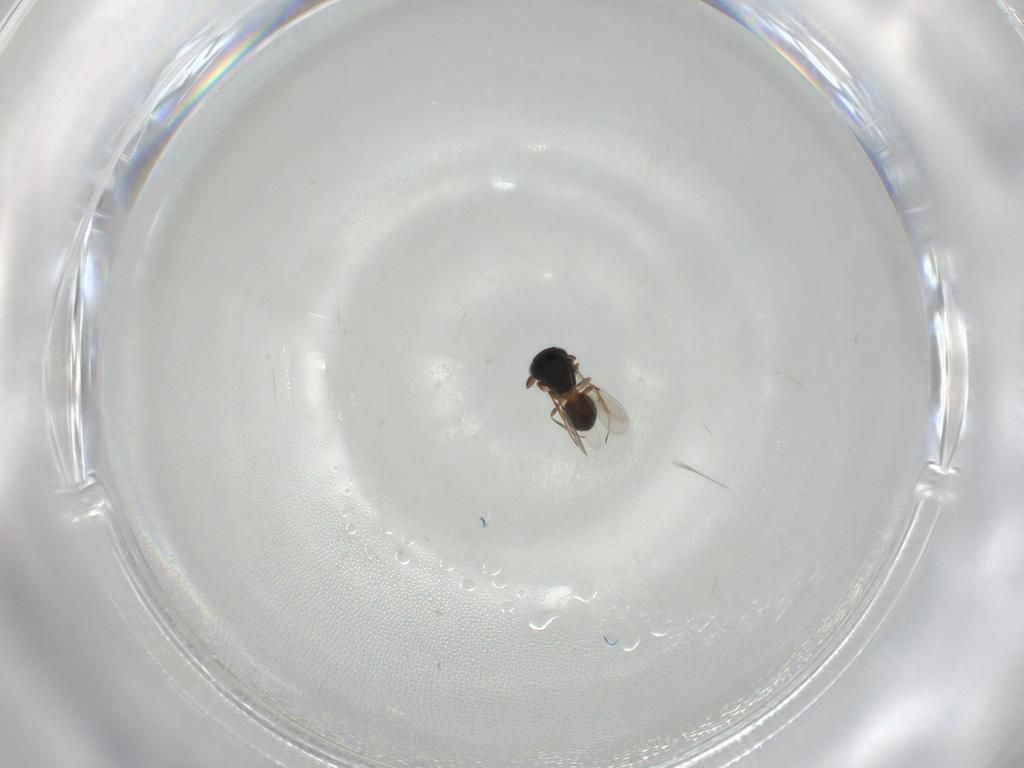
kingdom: Animalia
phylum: Arthropoda
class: Insecta
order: Hymenoptera
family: Scelionidae
